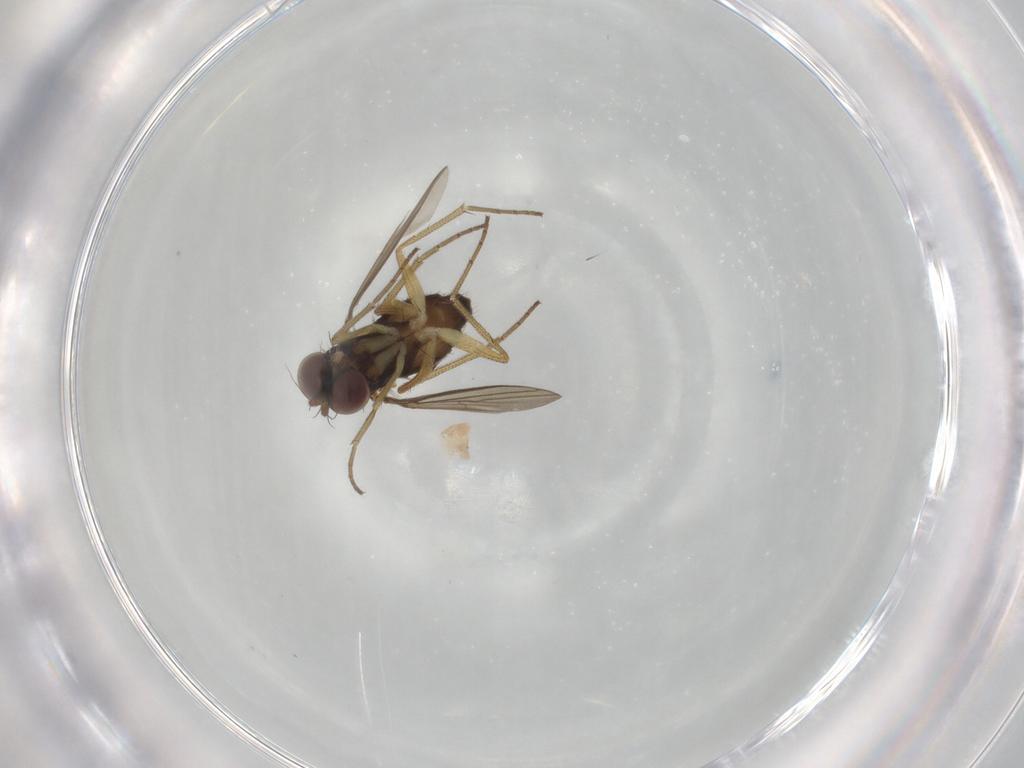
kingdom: Animalia
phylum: Arthropoda
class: Insecta
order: Diptera
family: Dolichopodidae
